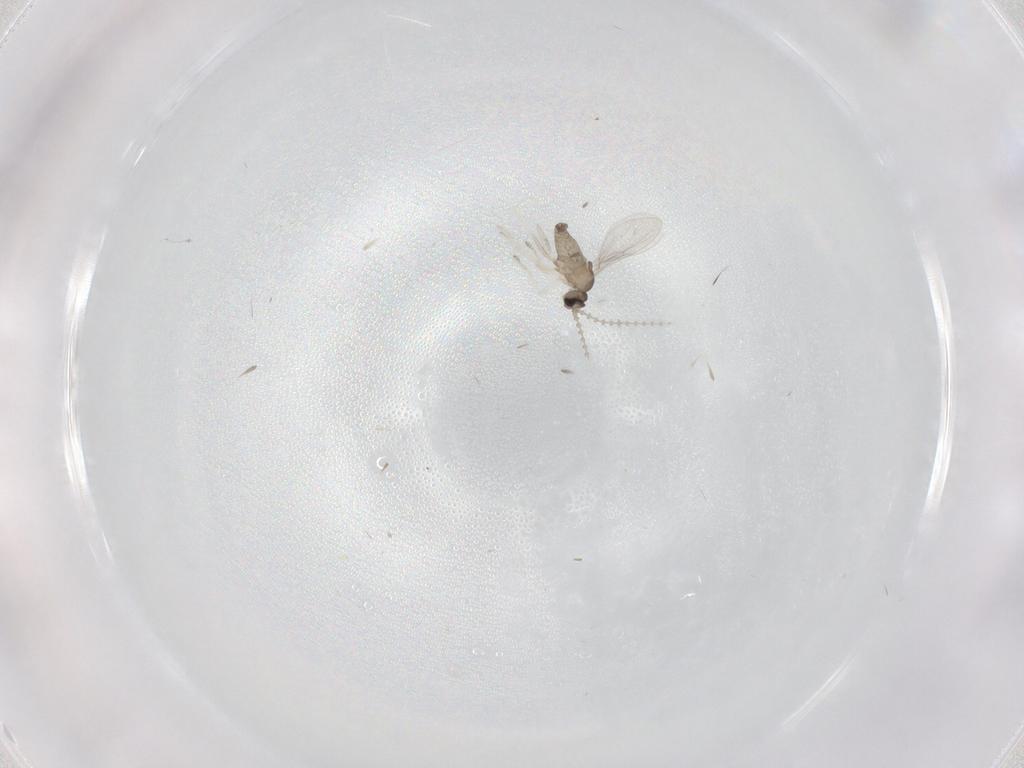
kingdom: Animalia
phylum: Arthropoda
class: Insecta
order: Diptera
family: Cecidomyiidae
